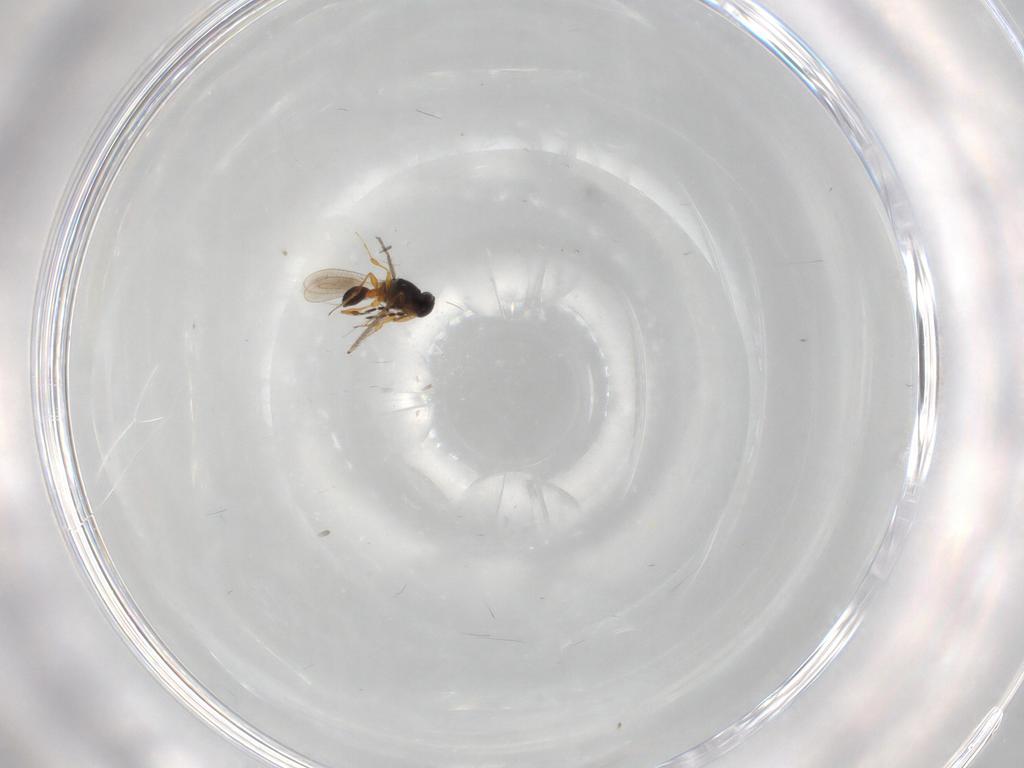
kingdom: Animalia
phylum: Arthropoda
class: Insecta
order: Hymenoptera
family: Platygastridae
